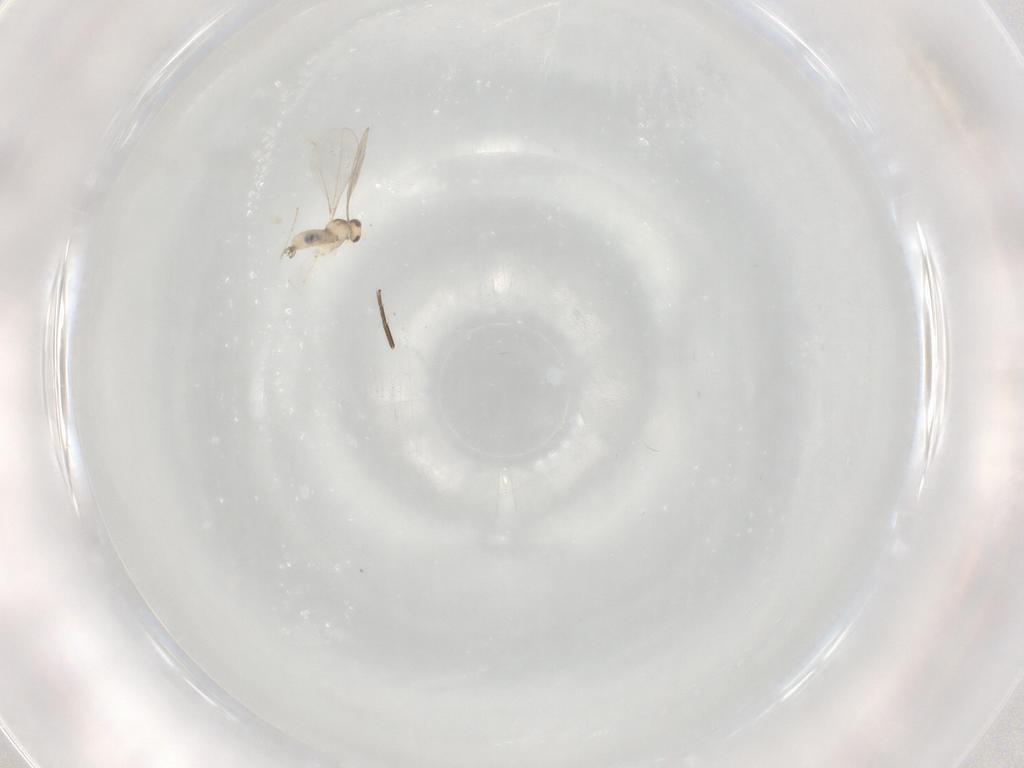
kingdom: Animalia
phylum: Arthropoda
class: Insecta
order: Diptera
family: Phoridae
